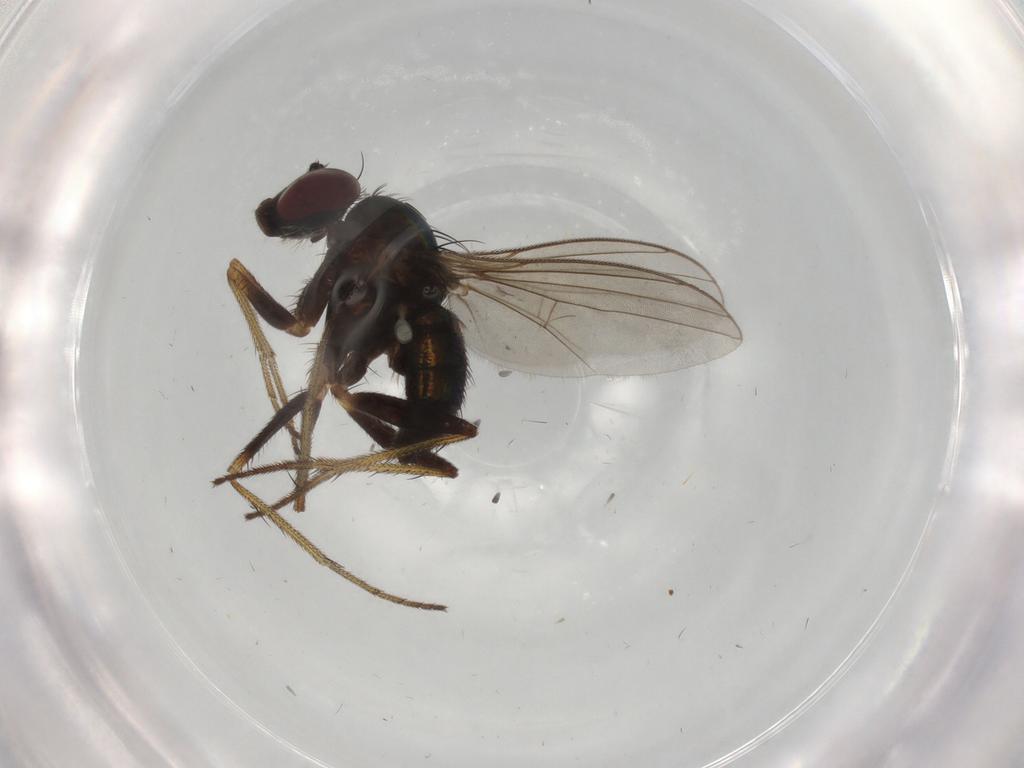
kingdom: Animalia
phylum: Arthropoda
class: Insecta
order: Diptera
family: Dolichopodidae
